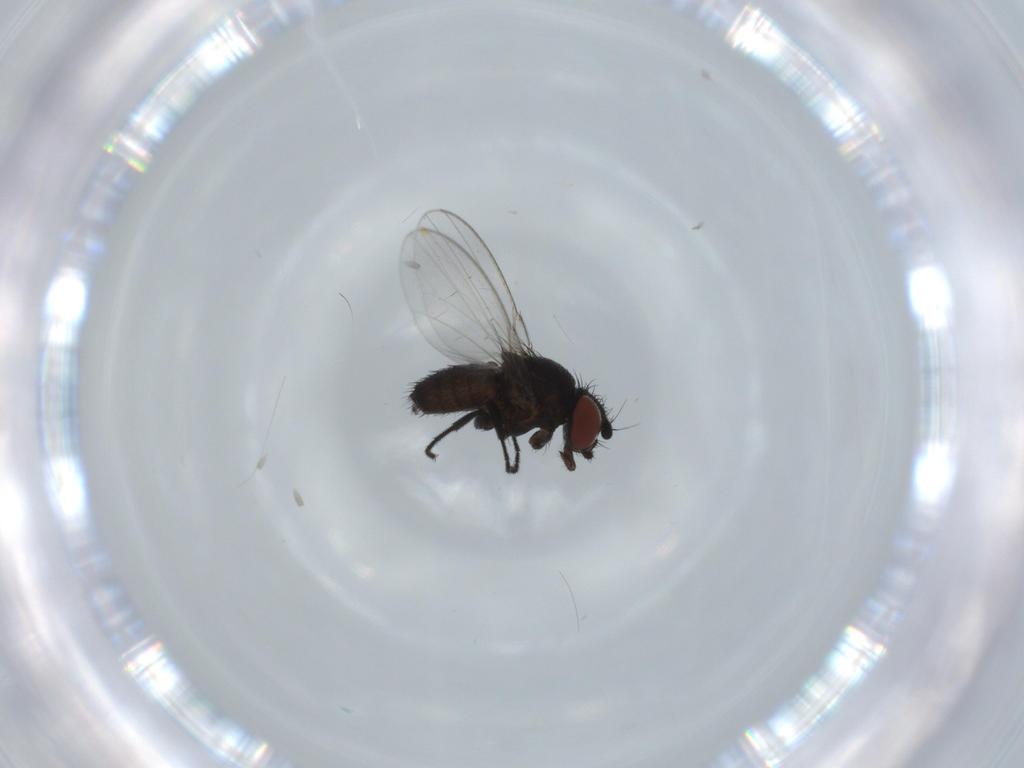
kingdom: Animalia
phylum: Arthropoda
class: Insecta
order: Diptera
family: Milichiidae
